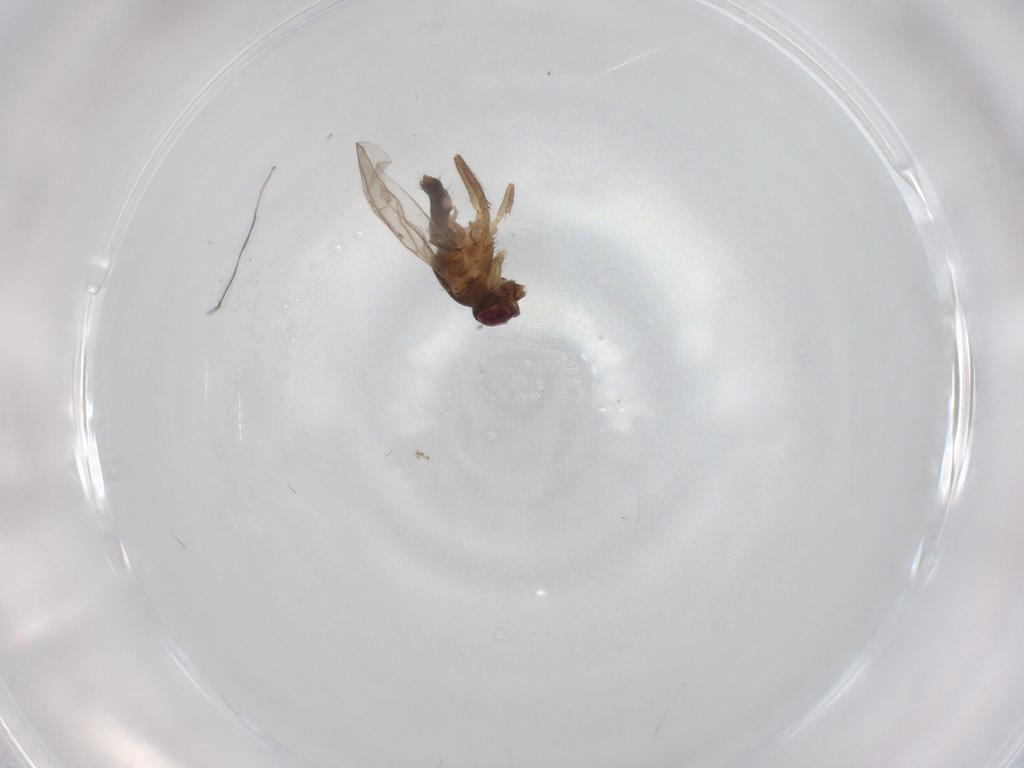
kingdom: Animalia
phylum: Arthropoda
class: Insecta
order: Diptera
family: Sphaeroceridae
